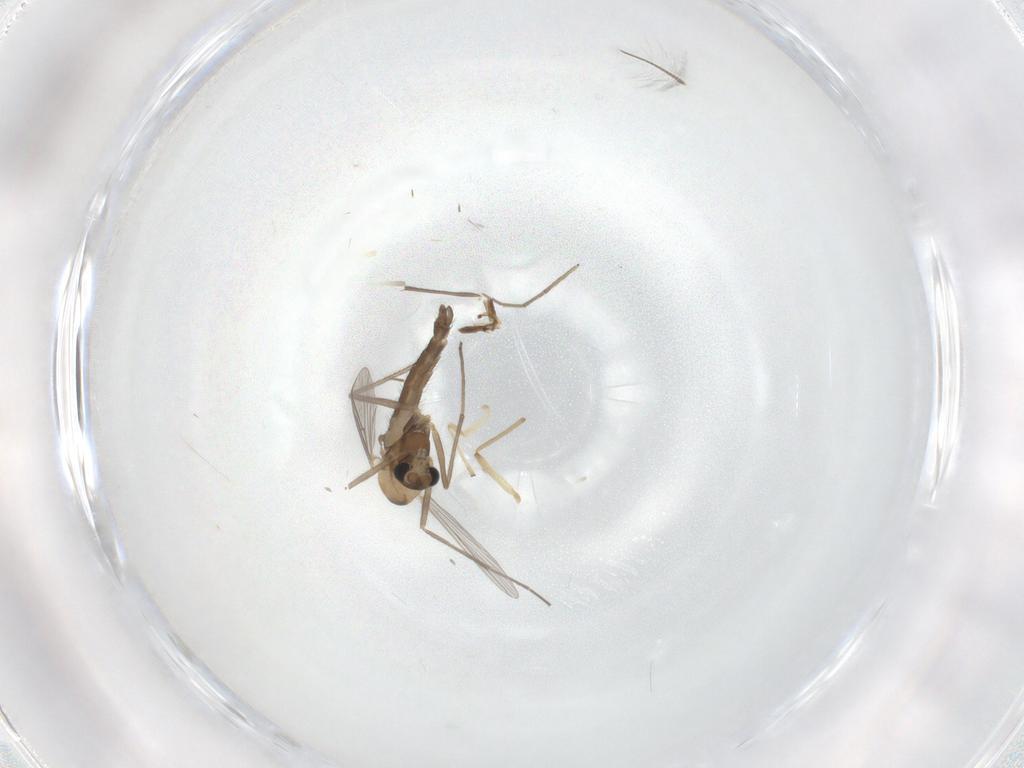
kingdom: Animalia
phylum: Arthropoda
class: Insecta
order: Diptera
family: Chironomidae
